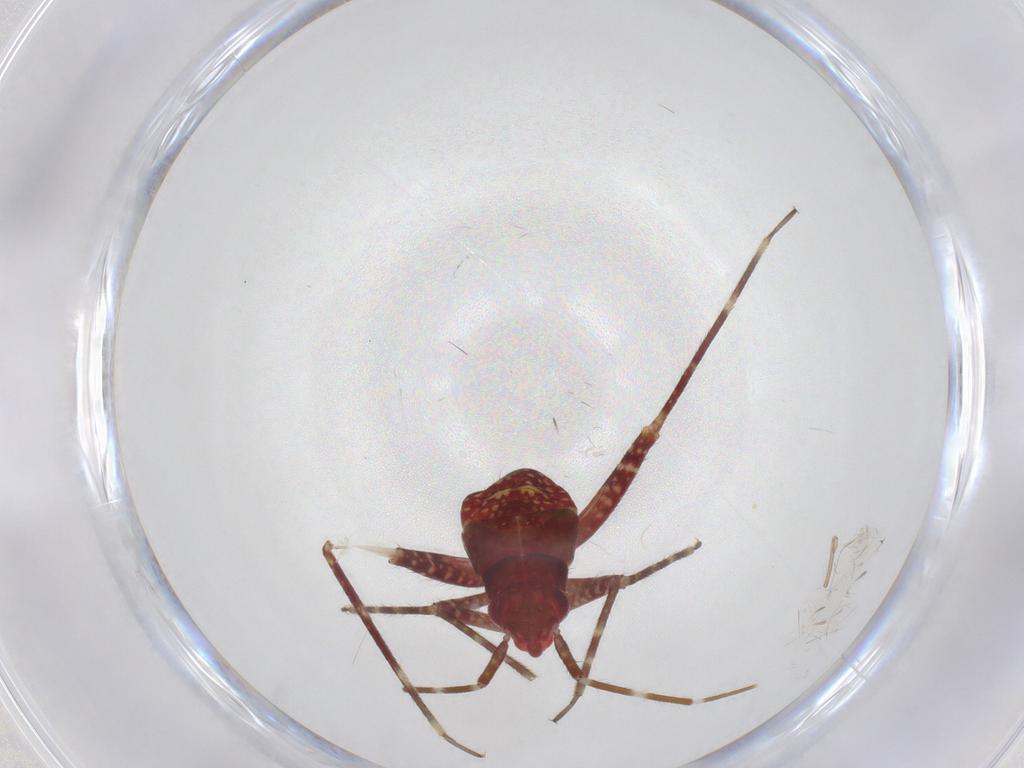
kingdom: Animalia
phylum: Arthropoda
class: Insecta
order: Hemiptera
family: Miridae
